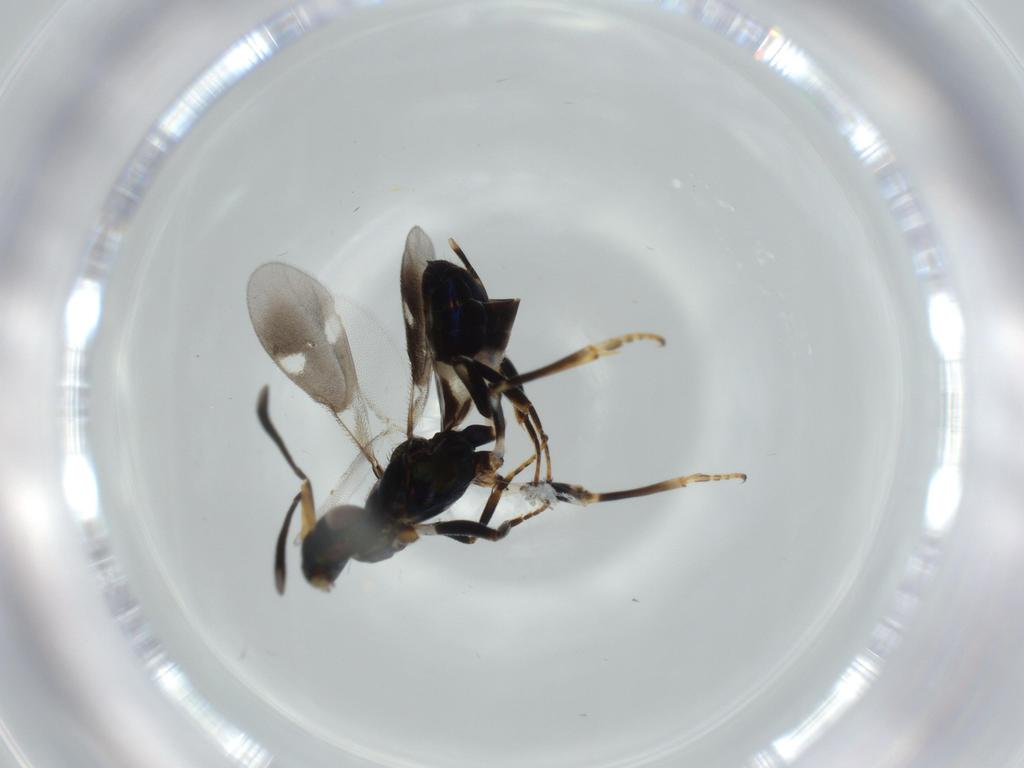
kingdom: Animalia
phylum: Arthropoda
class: Insecta
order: Hymenoptera
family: Eupelmidae
